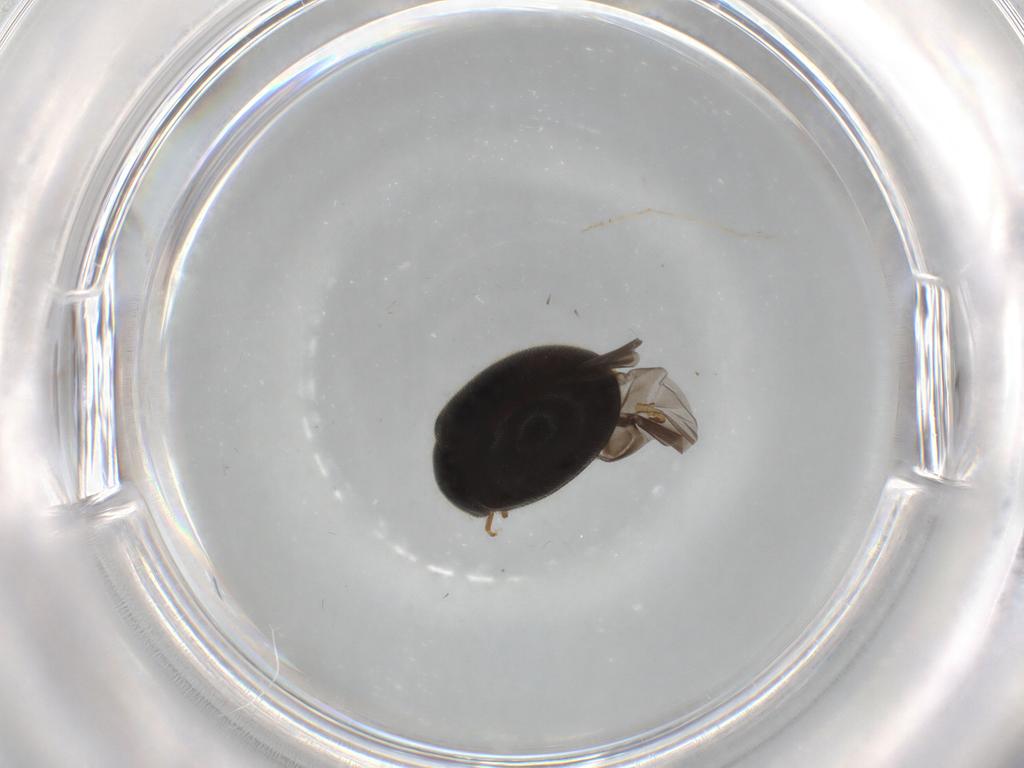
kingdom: Animalia
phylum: Arthropoda
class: Insecta
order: Coleoptera
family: Scirtidae
